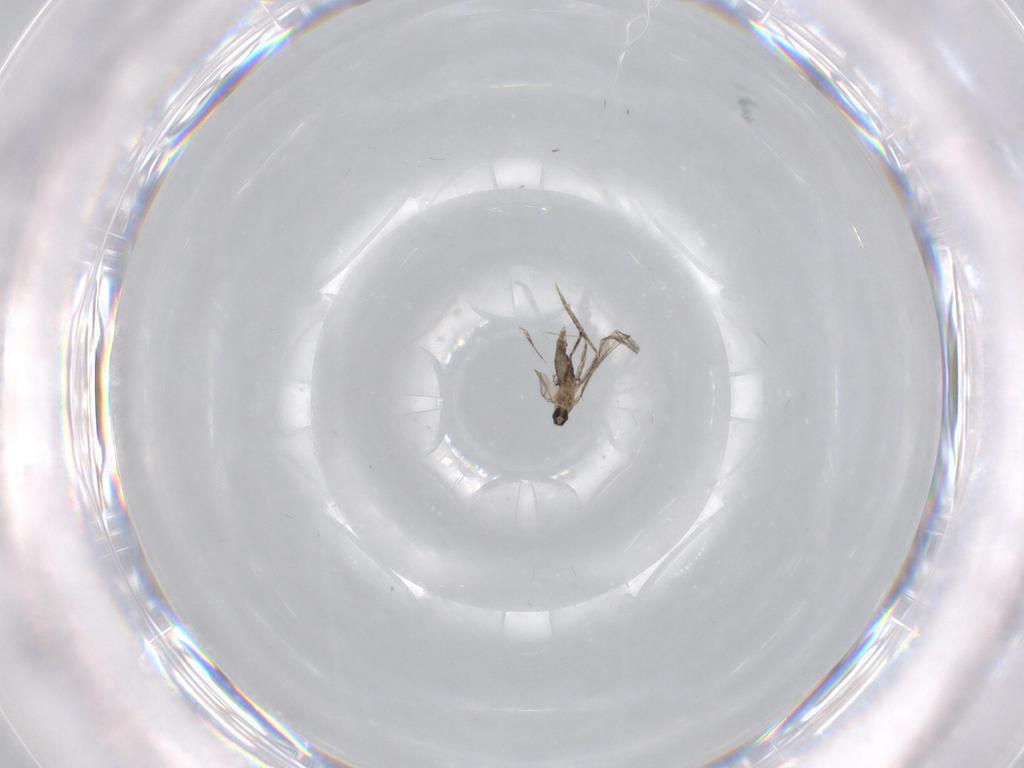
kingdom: Animalia
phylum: Arthropoda
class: Insecta
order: Diptera
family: Cecidomyiidae
